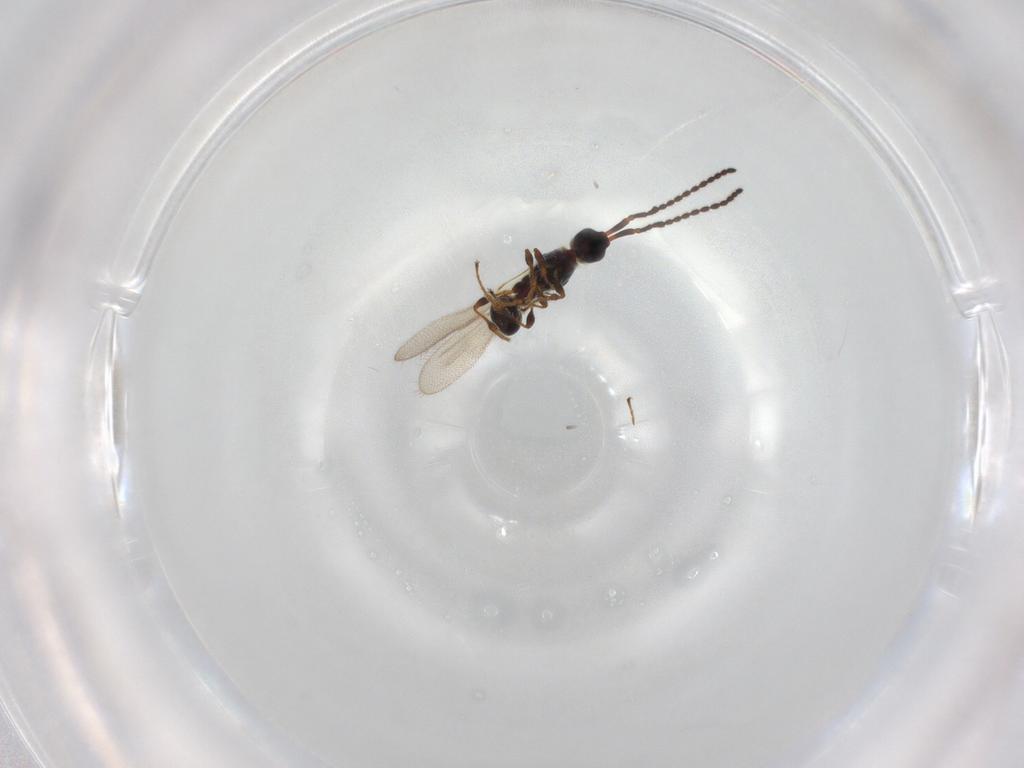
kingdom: Animalia
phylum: Arthropoda
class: Insecta
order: Hymenoptera
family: Diapriidae
